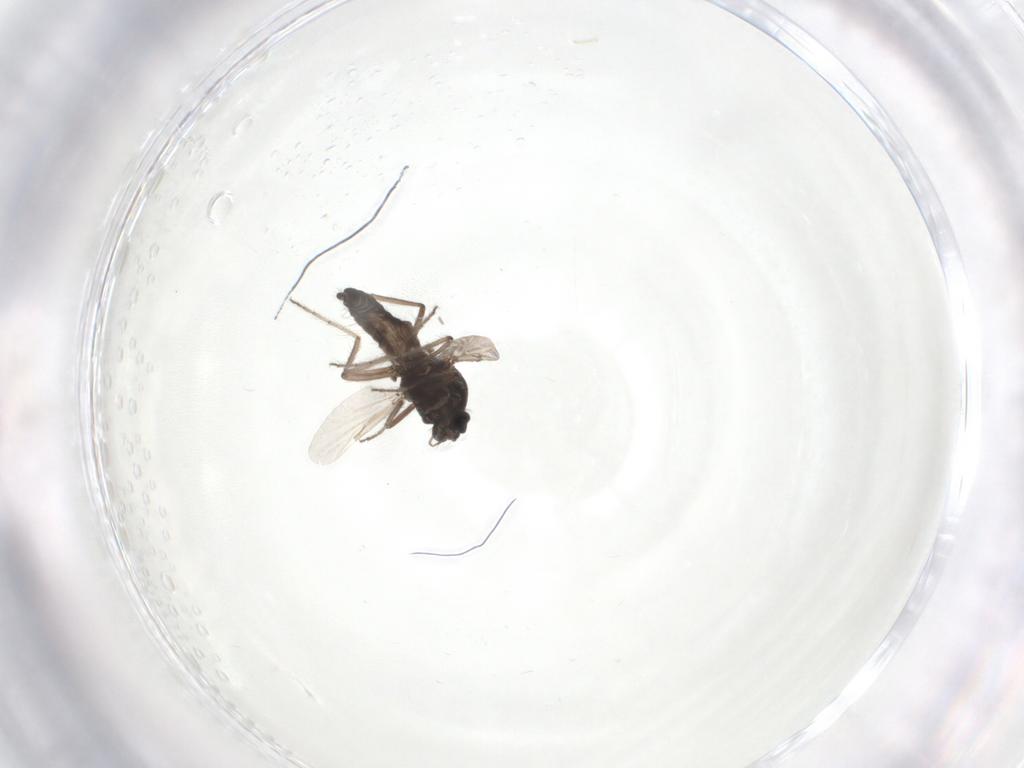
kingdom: Animalia
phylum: Arthropoda
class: Insecta
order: Diptera
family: Ceratopogonidae
